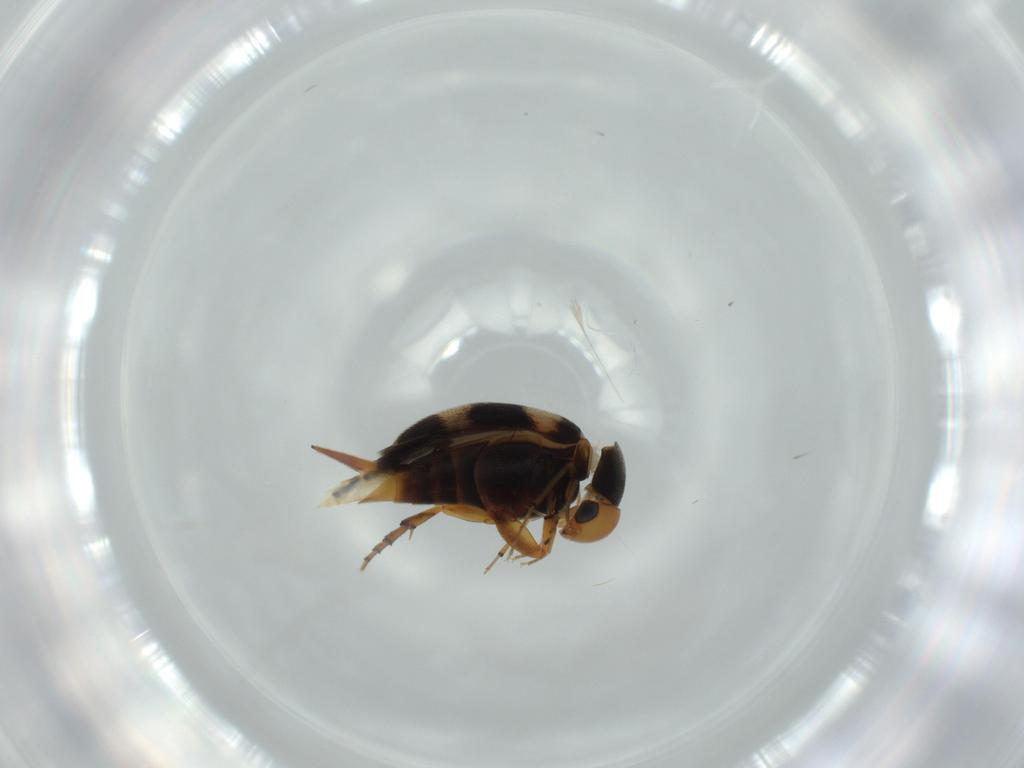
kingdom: Animalia
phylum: Arthropoda
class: Insecta
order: Coleoptera
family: Mordellidae
